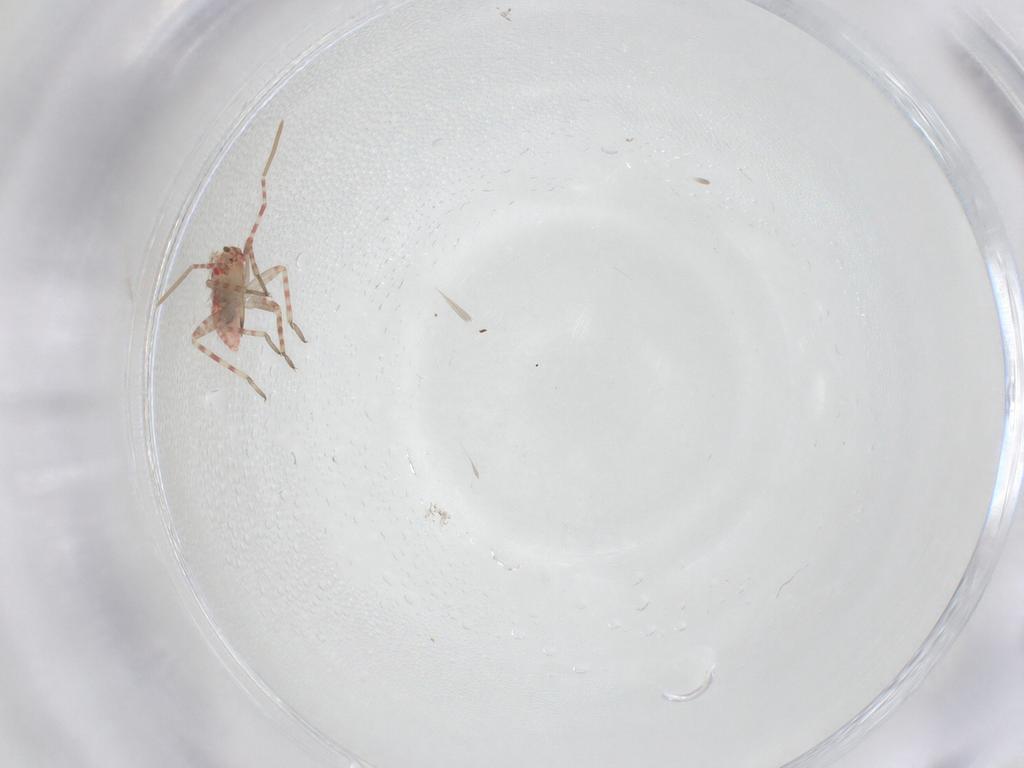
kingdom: Animalia
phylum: Arthropoda
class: Insecta
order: Hemiptera
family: Miridae
